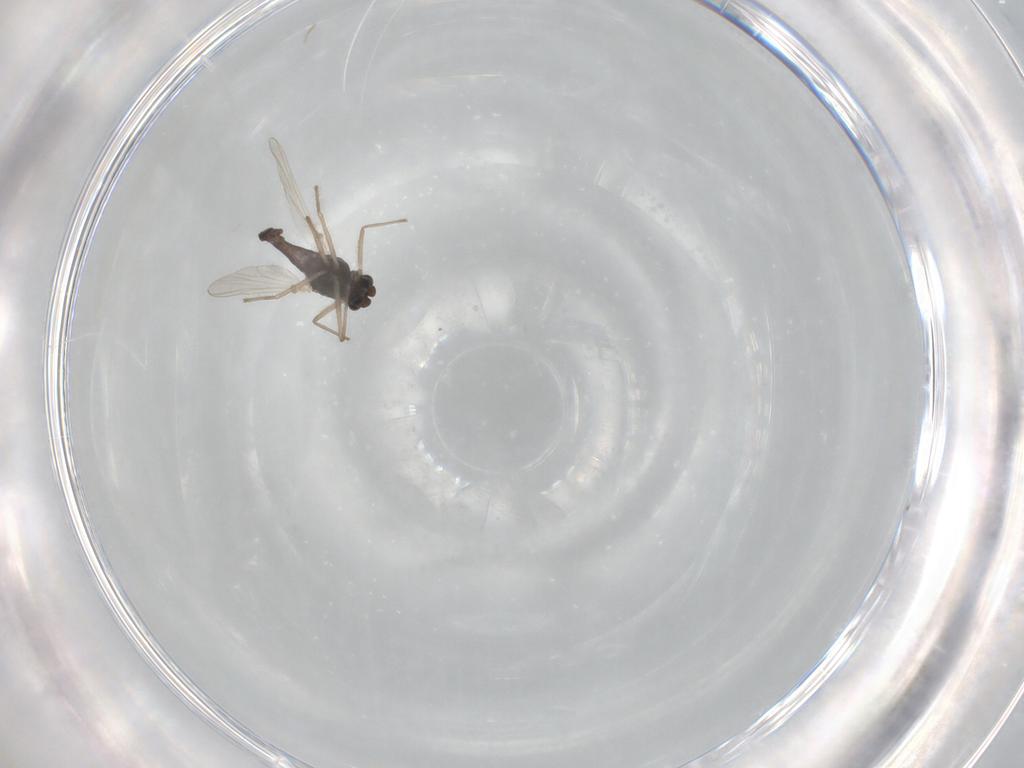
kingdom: Animalia
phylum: Arthropoda
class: Insecta
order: Diptera
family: Chironomidae
